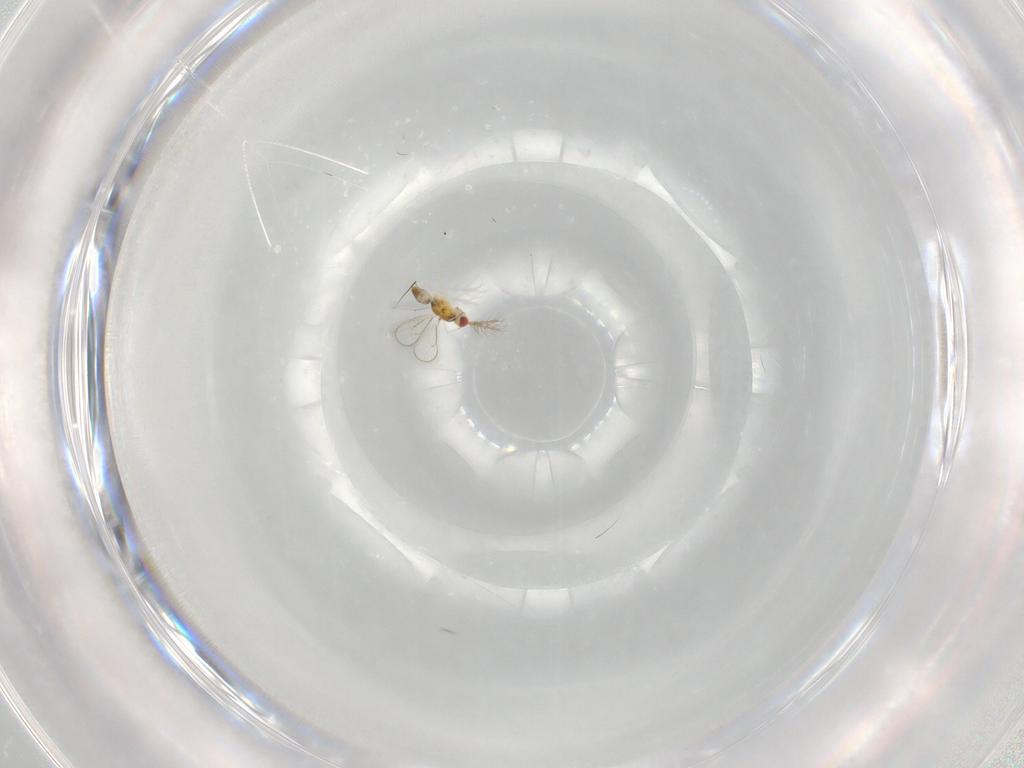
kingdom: Animalia
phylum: Arthropoda
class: Insecta
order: Hymenoptera
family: Eulophidae
